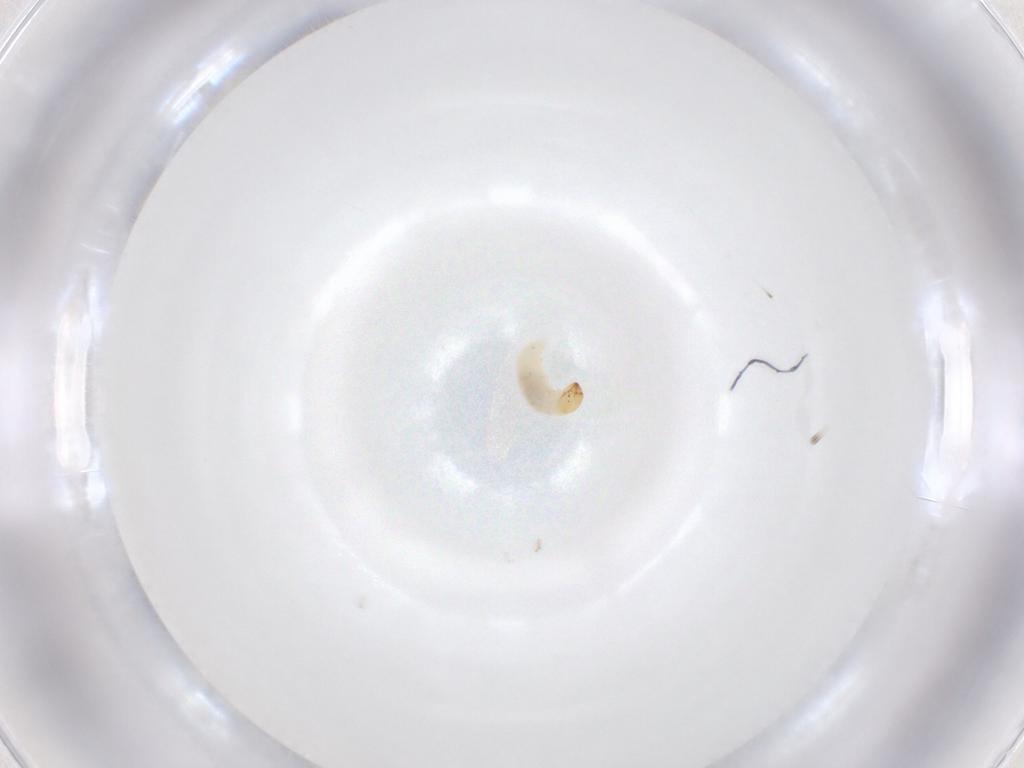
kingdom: Animalia
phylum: Arthropoda
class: Insecta
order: Coleoptera
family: Curculionidae
